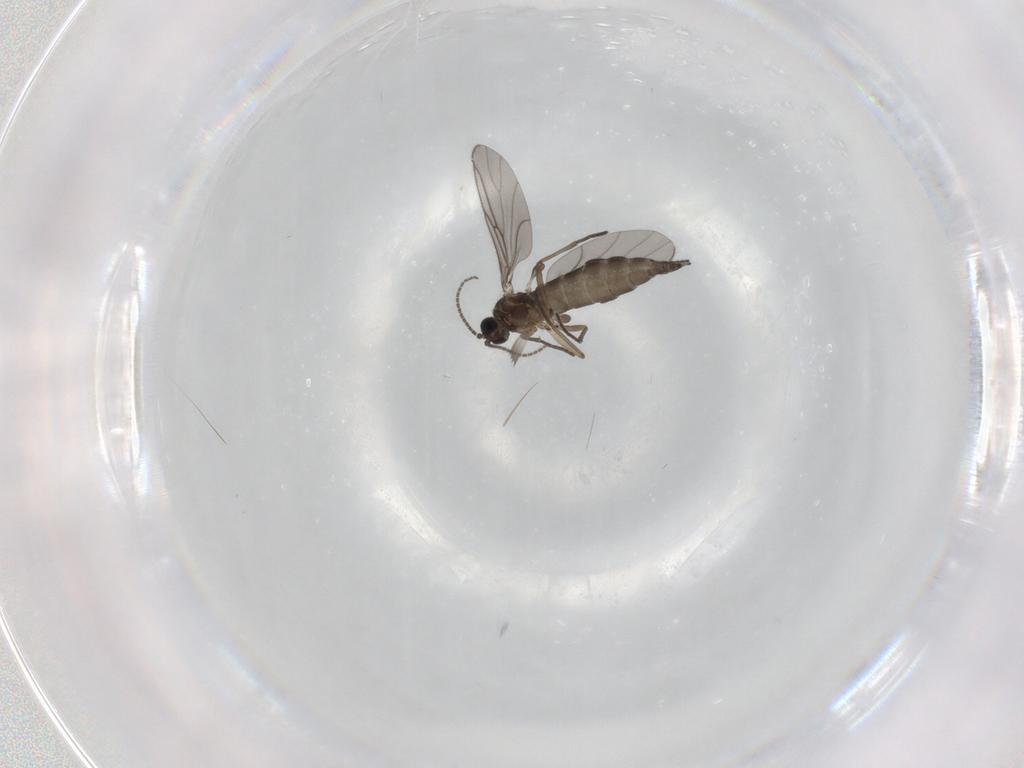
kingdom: Animalia
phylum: Arthropoda
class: Insecta
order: Diptera
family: Sciaridae
